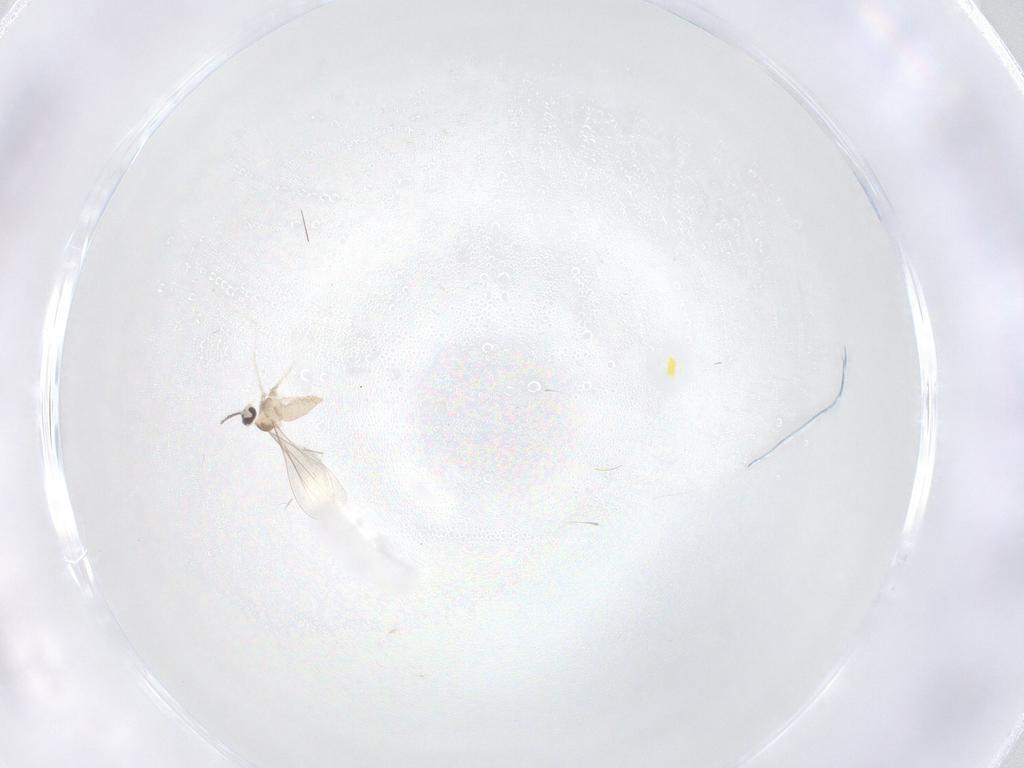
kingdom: Animalia
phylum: Arthropoda
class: Insecta
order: Diptera
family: Cecidomyiidae
